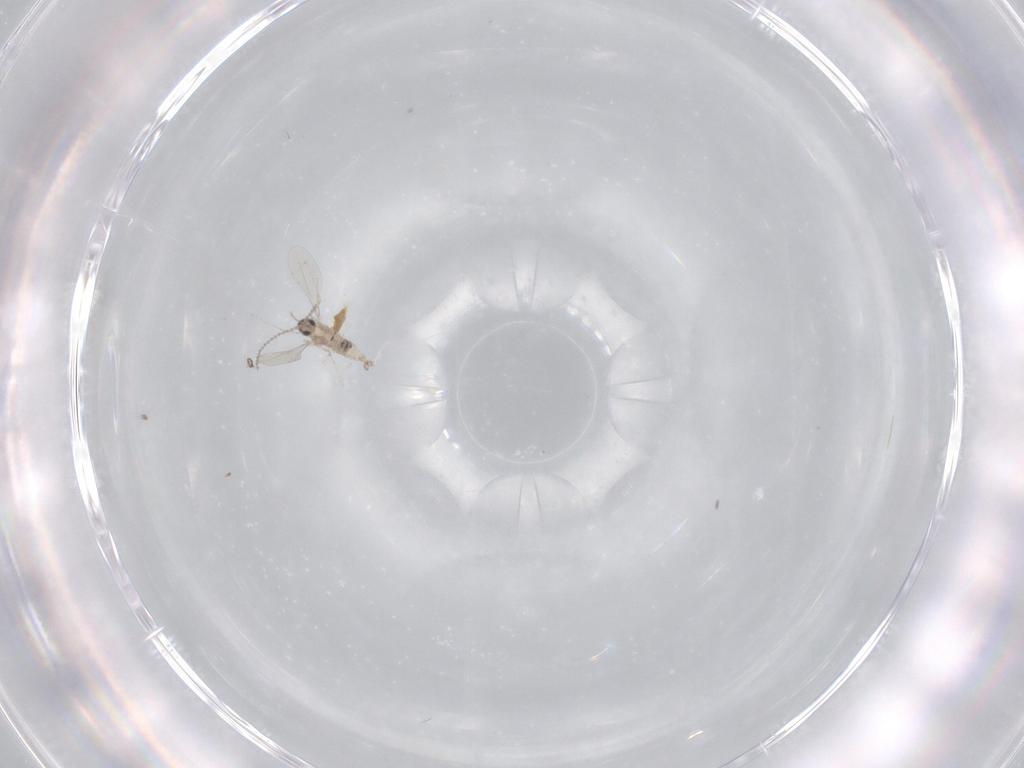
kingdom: Animalia
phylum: Arthropoda
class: Insecta
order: Diptera
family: Cecidomyiidae
